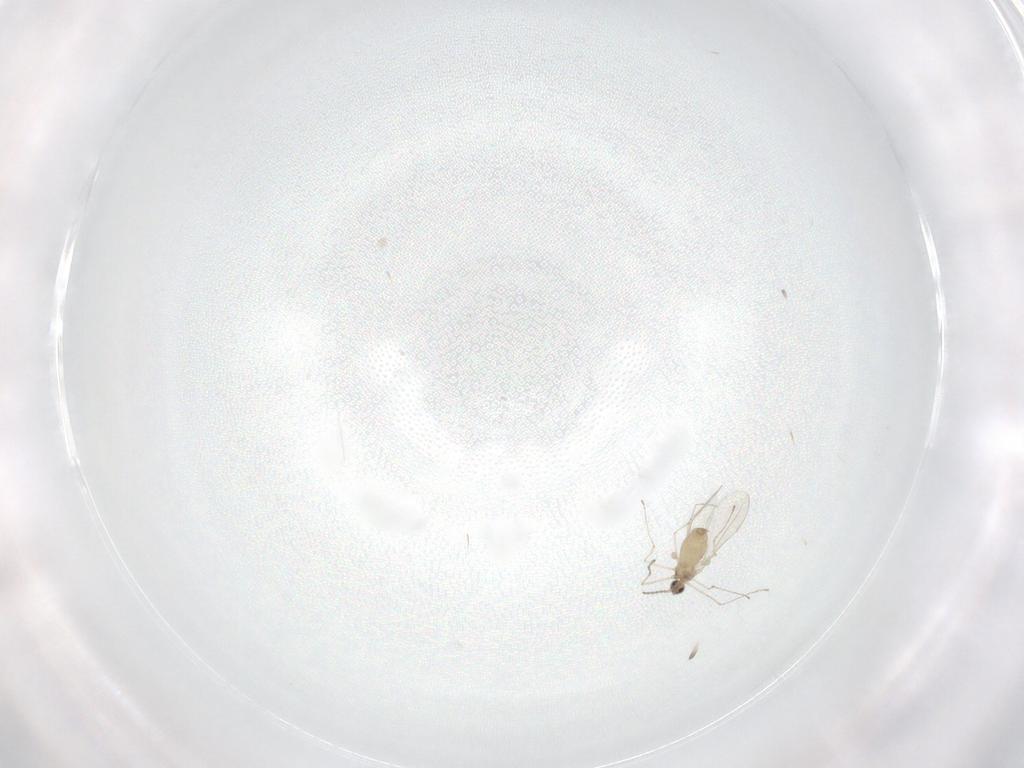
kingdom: Animalia
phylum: Arthropoda
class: Insecta
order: Diptera
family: Cecidomyiidae
